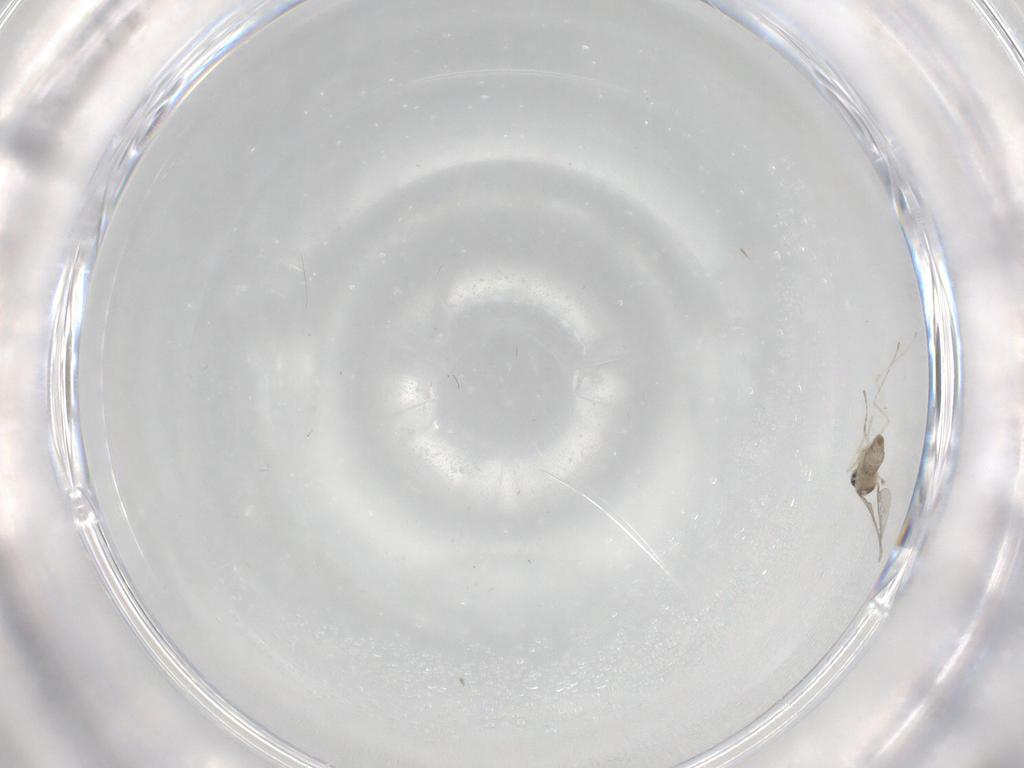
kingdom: Animalia
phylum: Arthropoda
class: Insecta
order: Diptera
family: Cecidomyiidae
